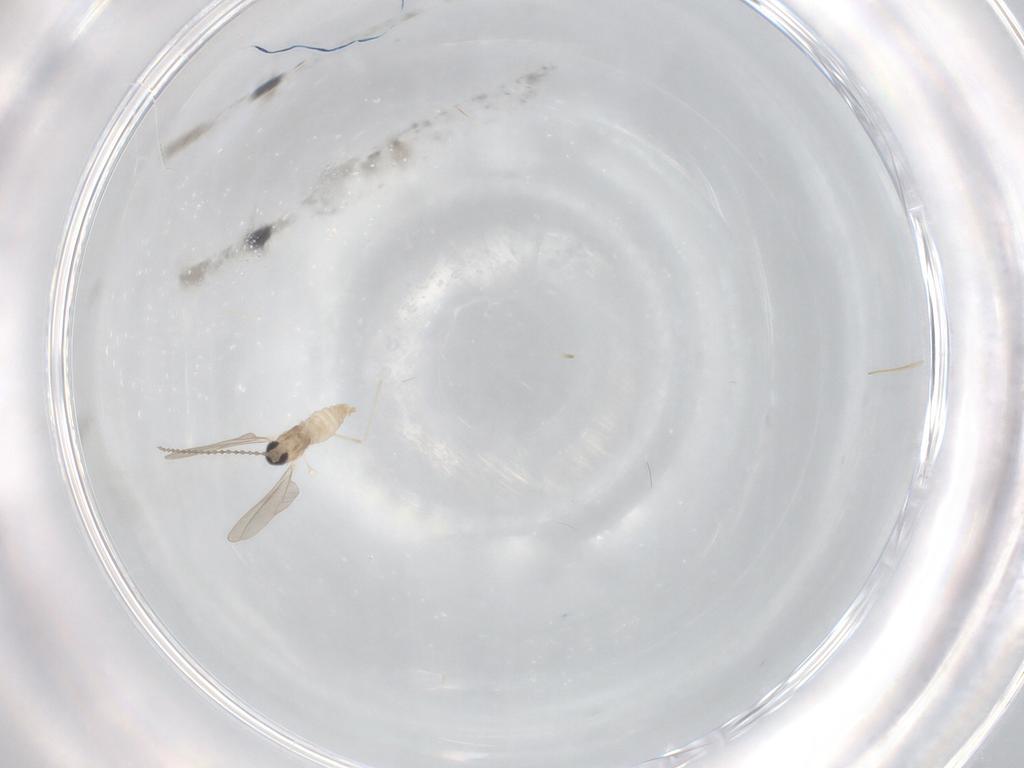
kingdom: Animalia
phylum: Arthropoda
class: Insecta
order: Diptera
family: Cecidomyiidae
